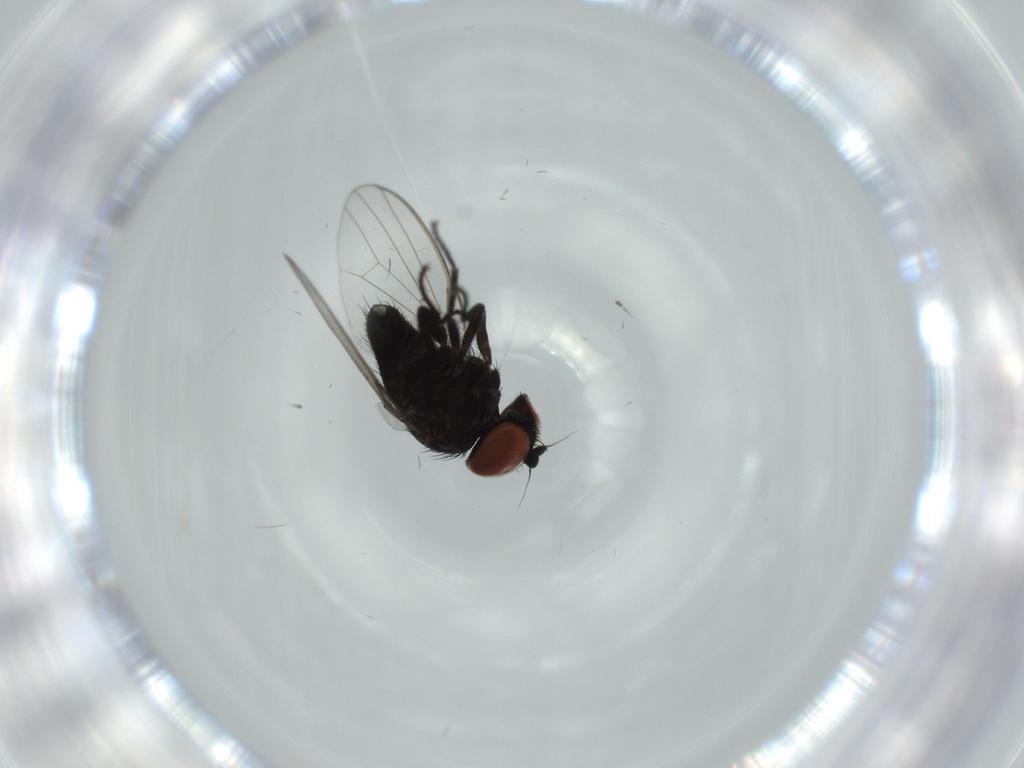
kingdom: Animalia
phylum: Arthropoda
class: Insecta
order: Diptera
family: Milichiidae
